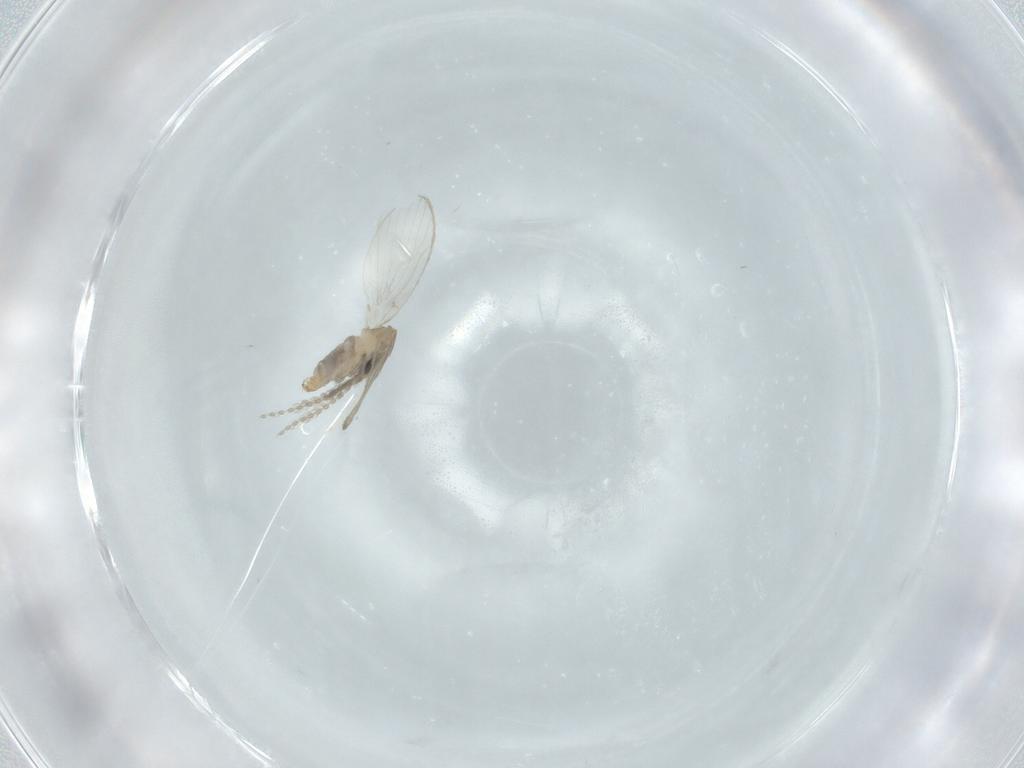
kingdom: Animalia
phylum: Arthropoda
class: Insecta
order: Diptera
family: Psychodidae
